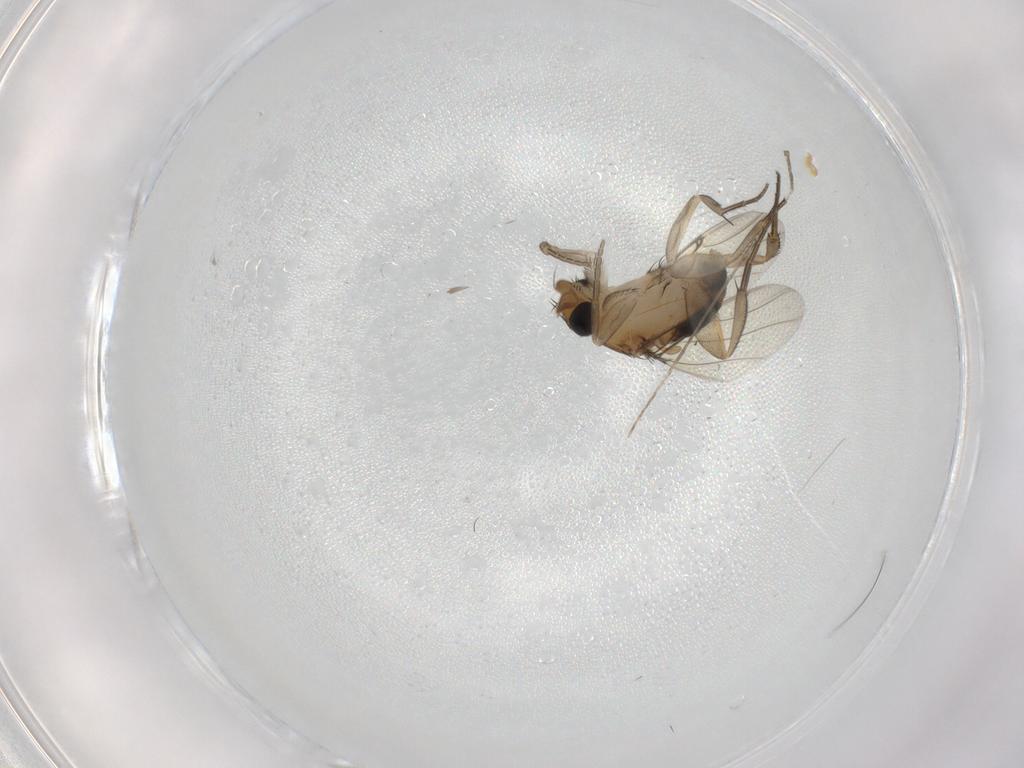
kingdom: Animalia
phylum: Arthropoda
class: Insecta
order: Diptera
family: Cecidomyiidae
